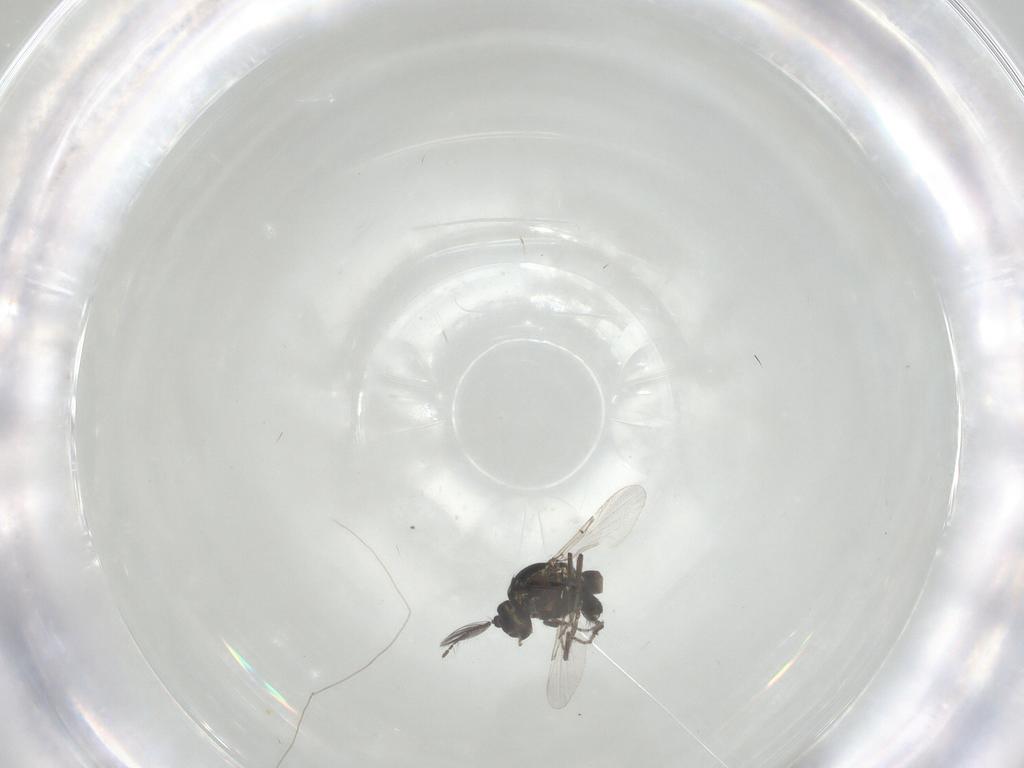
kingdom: Animalia
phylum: Arthropoda
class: Insecta
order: Diptera
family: Ceratopogonidae
